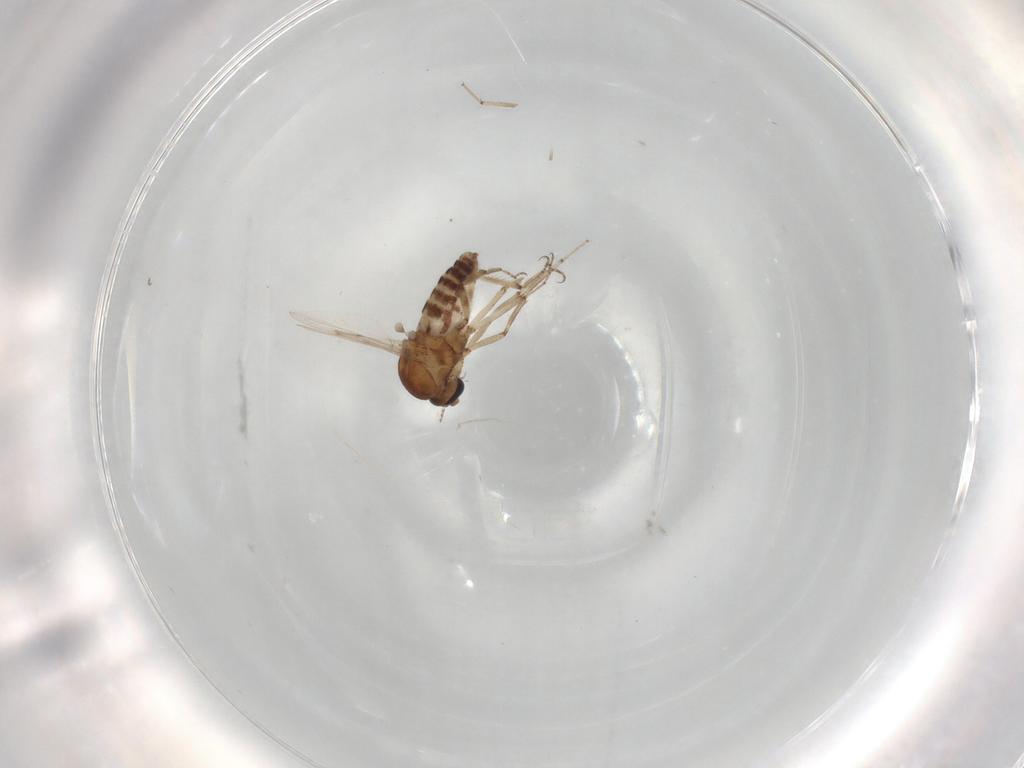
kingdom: Animalia
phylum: Arthropoda
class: Insecta
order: Diptera
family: Ceratopogonidae
